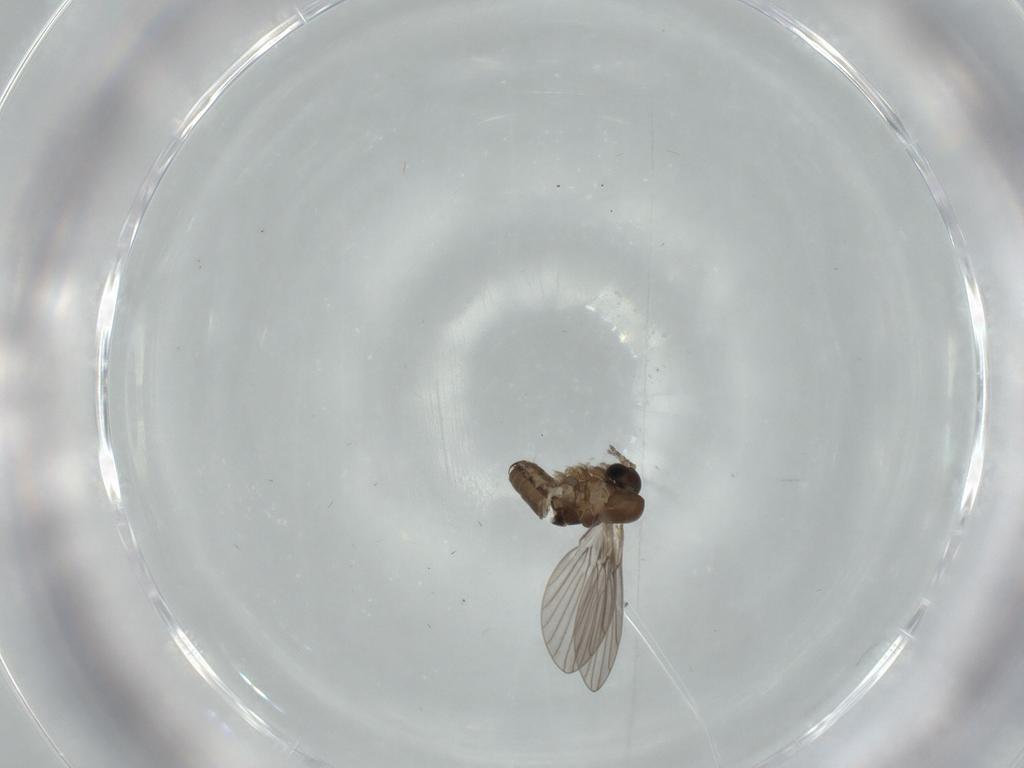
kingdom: Animalia
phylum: Arthropoda
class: Insecta
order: Diptera
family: Psychodidae
